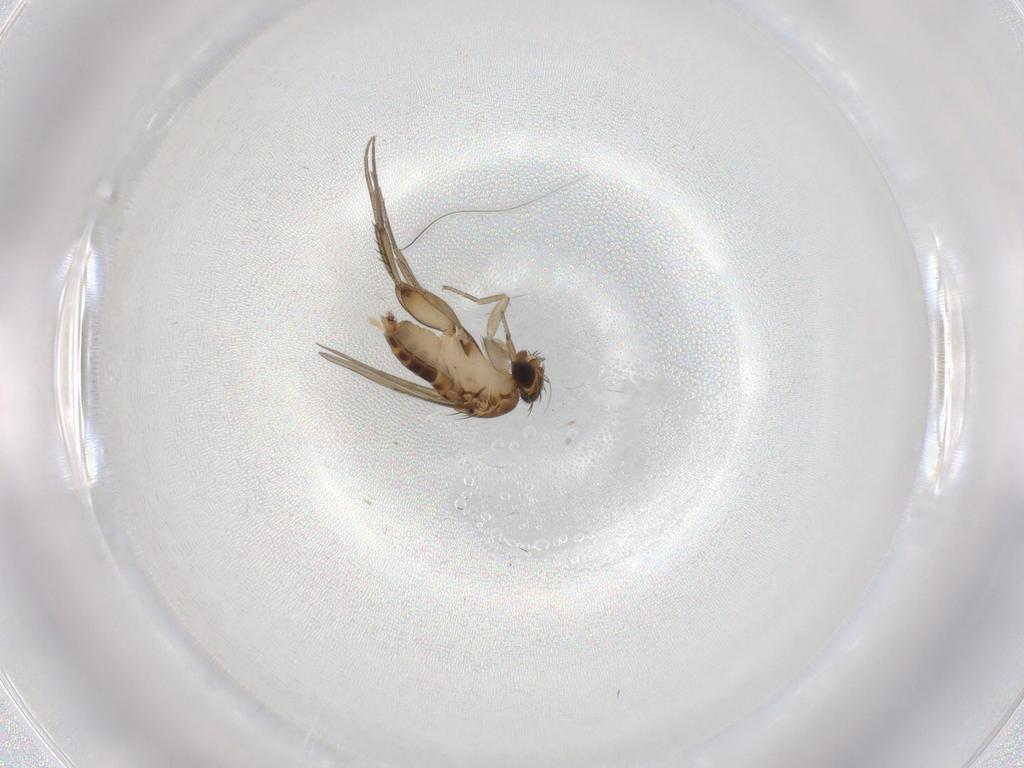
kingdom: Animalia
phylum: Arthropoda
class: Insecta
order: Diptera
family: Phoridae
